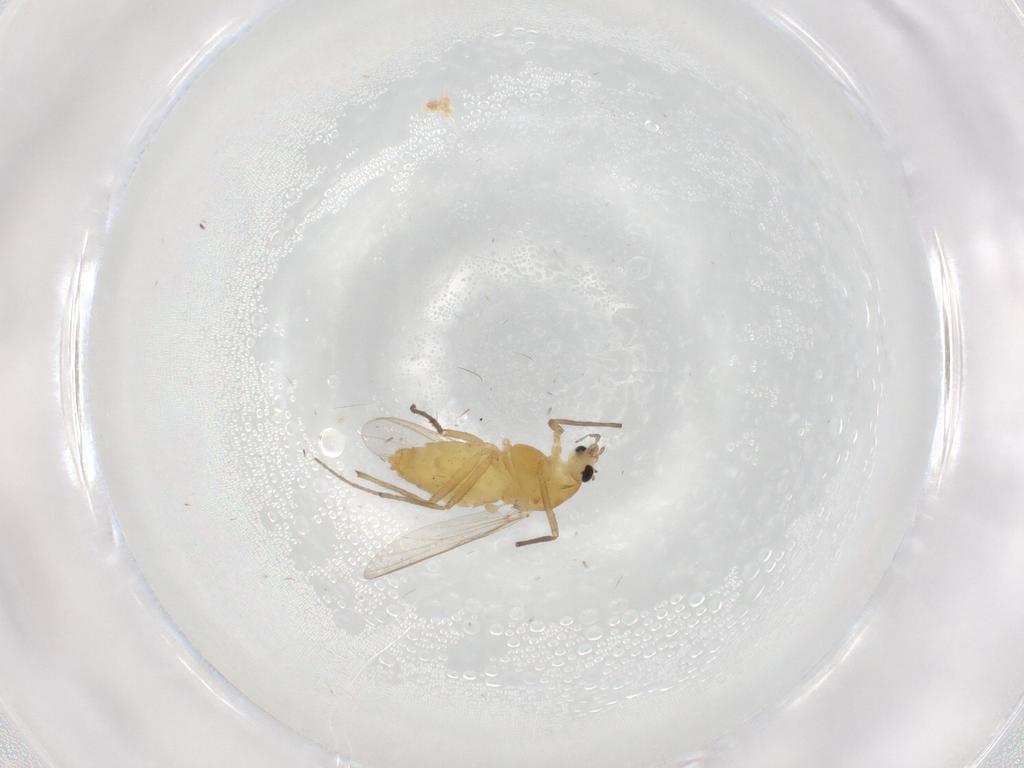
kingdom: Animalia
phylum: Arthropoda
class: Insecta
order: Diptera
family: Chironomidae
